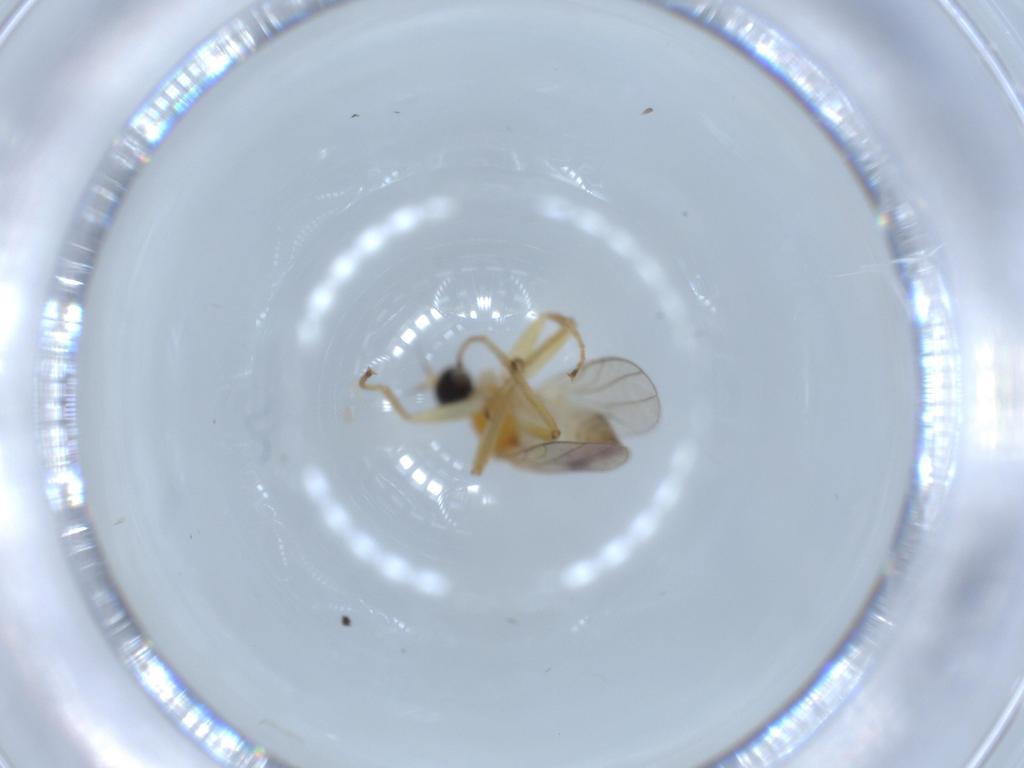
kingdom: Animalia
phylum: Arthropoda
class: Insecta
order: Diptera
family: Hybotidae
